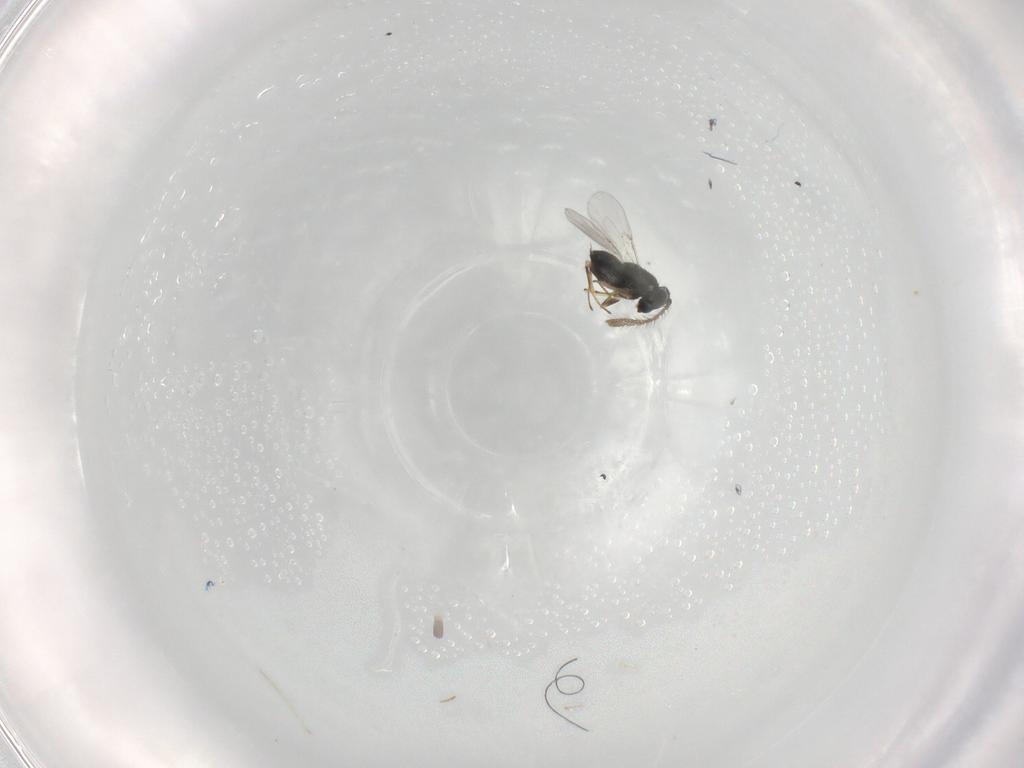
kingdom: Animalia
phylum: Arthropoda
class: Insecta
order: Hymenoptera
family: Encyrtidae
